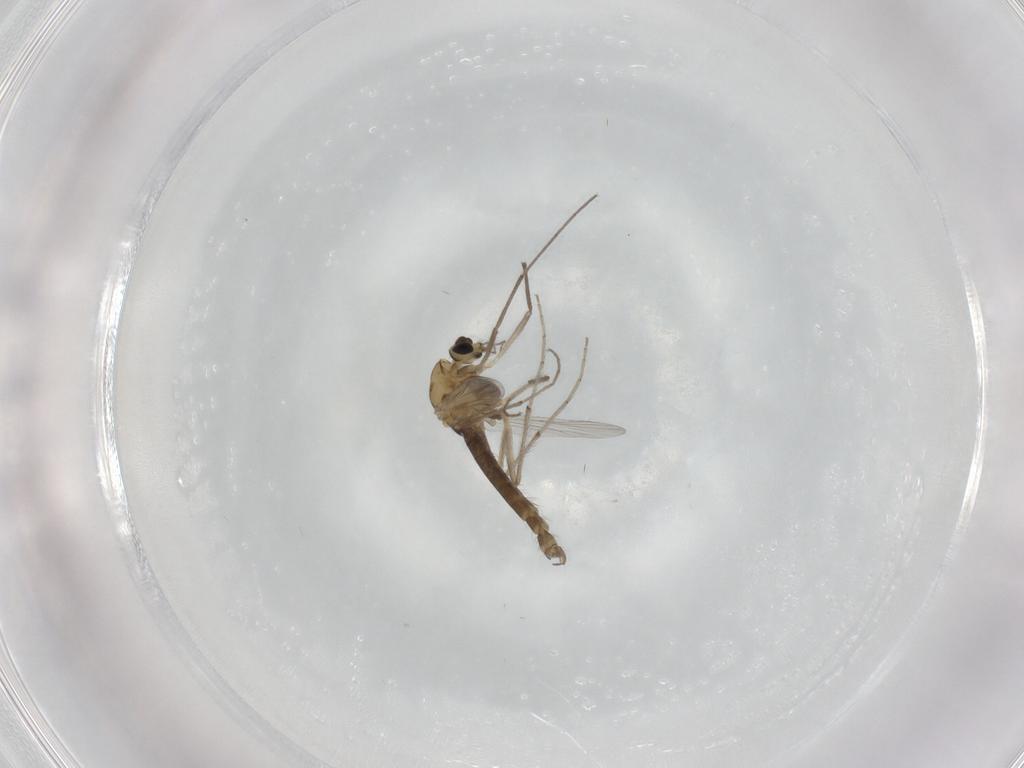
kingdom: Animalia
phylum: Arthropoda
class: Insecta
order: Diptera
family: Chironomidae
